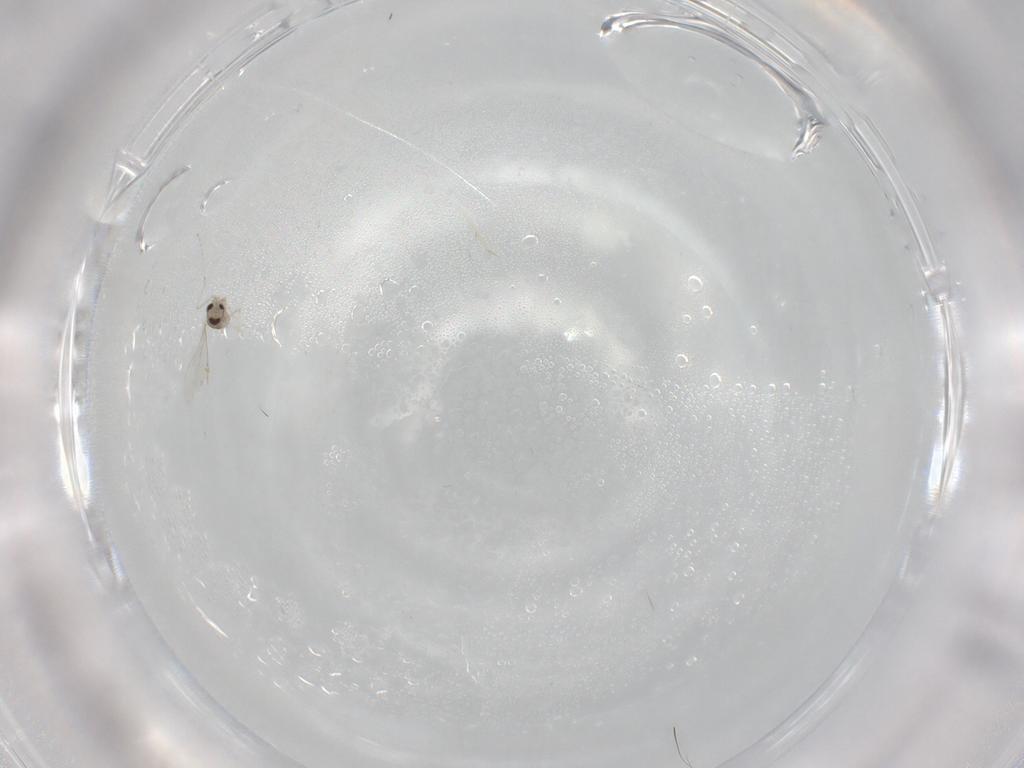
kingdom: Animalia
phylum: Arthropoda
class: Insecta
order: Diptera
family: Cecidomyiidae
